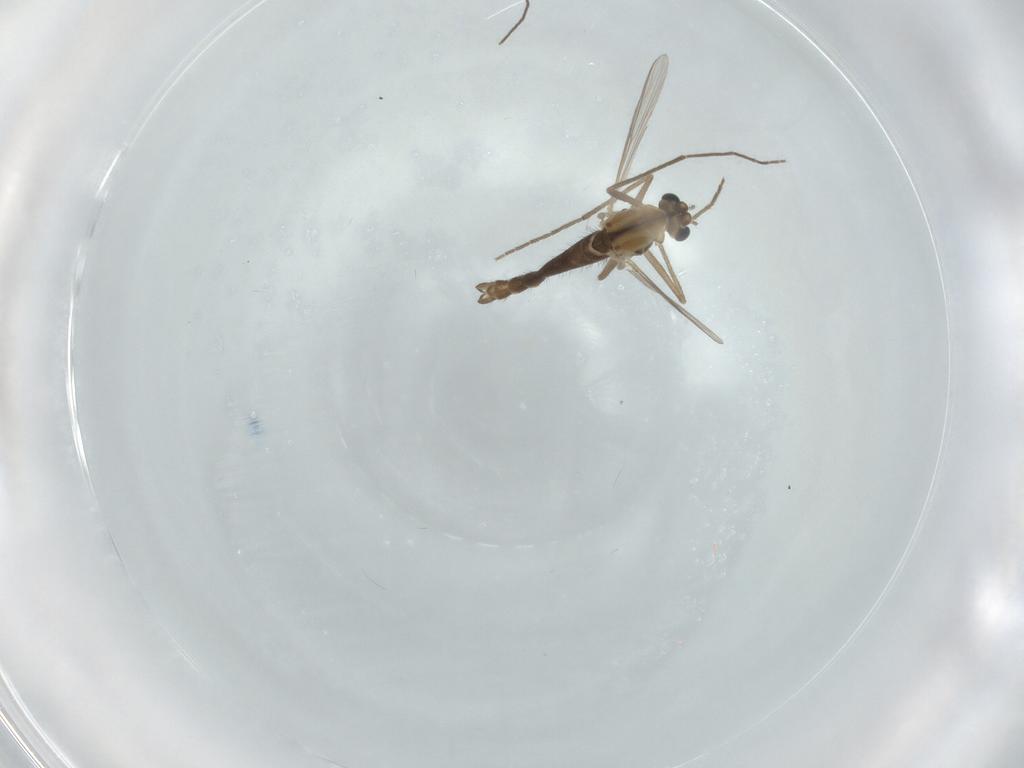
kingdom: Animalia
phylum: Arthropoda
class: Insecta
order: Diptera
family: Chironomidae
